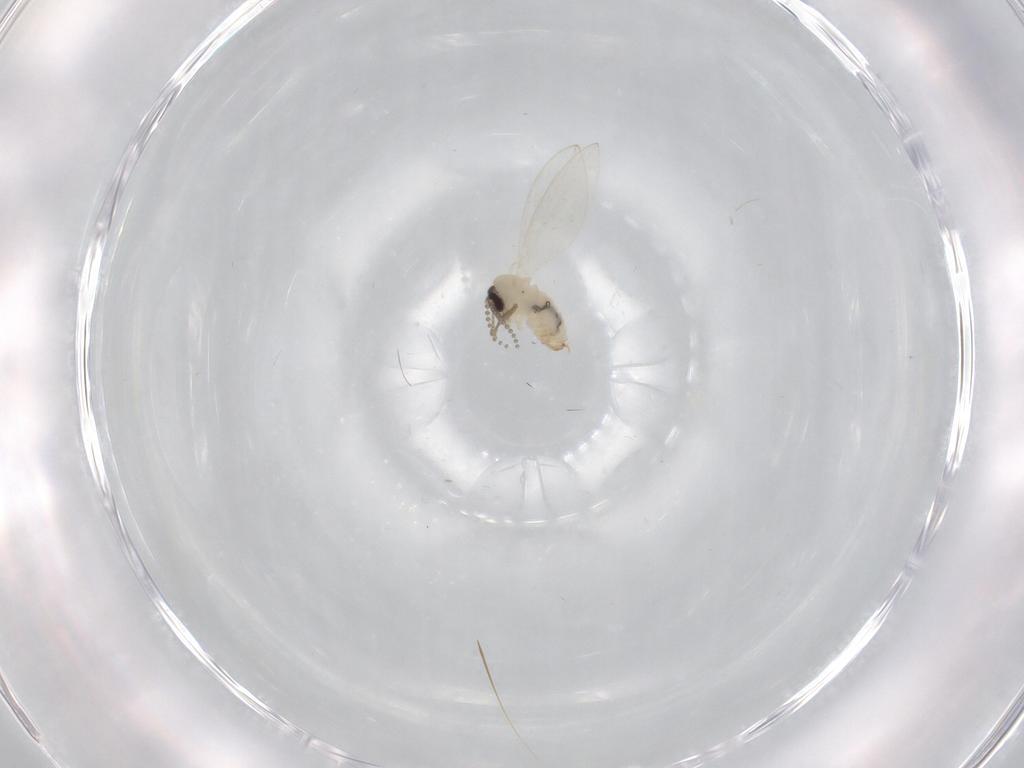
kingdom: Animalia
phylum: Arthropoda
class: Insecta
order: Diptera
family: Psychodidae
